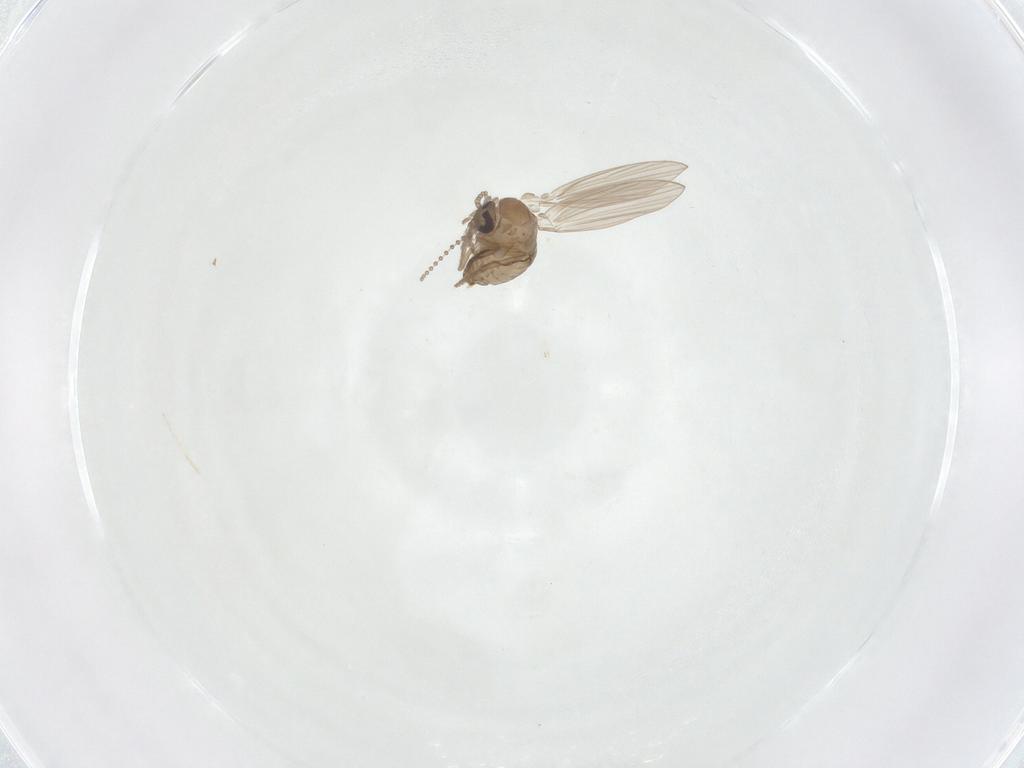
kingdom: Animalia
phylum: Arthropoda
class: Insecta
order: Diptera
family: Psychodidae
